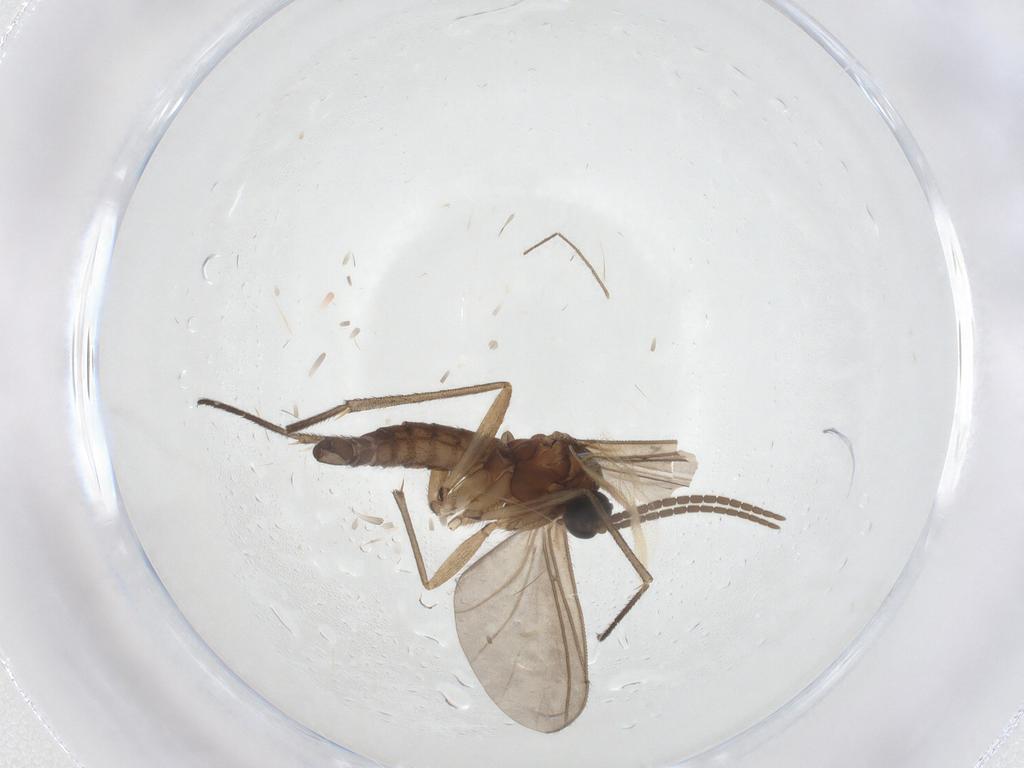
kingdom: Animalia
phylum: Arthropoda
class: Insecta
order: Diptera
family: Sciaridae
